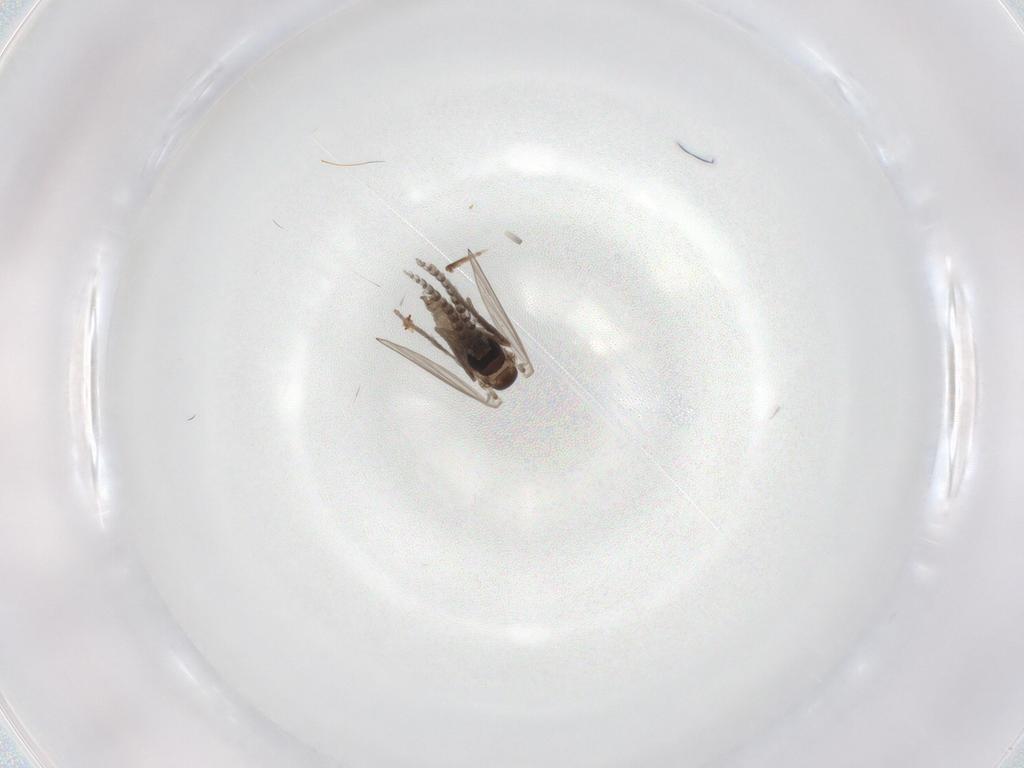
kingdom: Animalia
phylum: Arthropoda
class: Insecta
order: Diptera
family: Psychodidae
